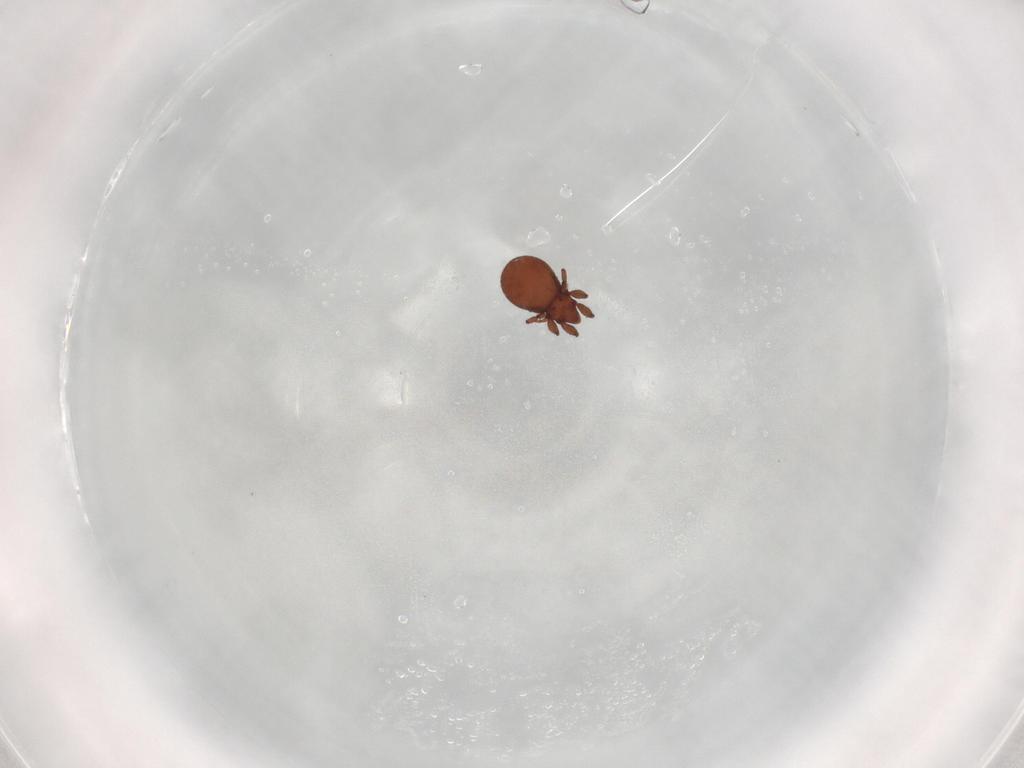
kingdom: Animalia
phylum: Arthropoda
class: Arachnida
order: Sarcoptiformes
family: Eremaeidae
